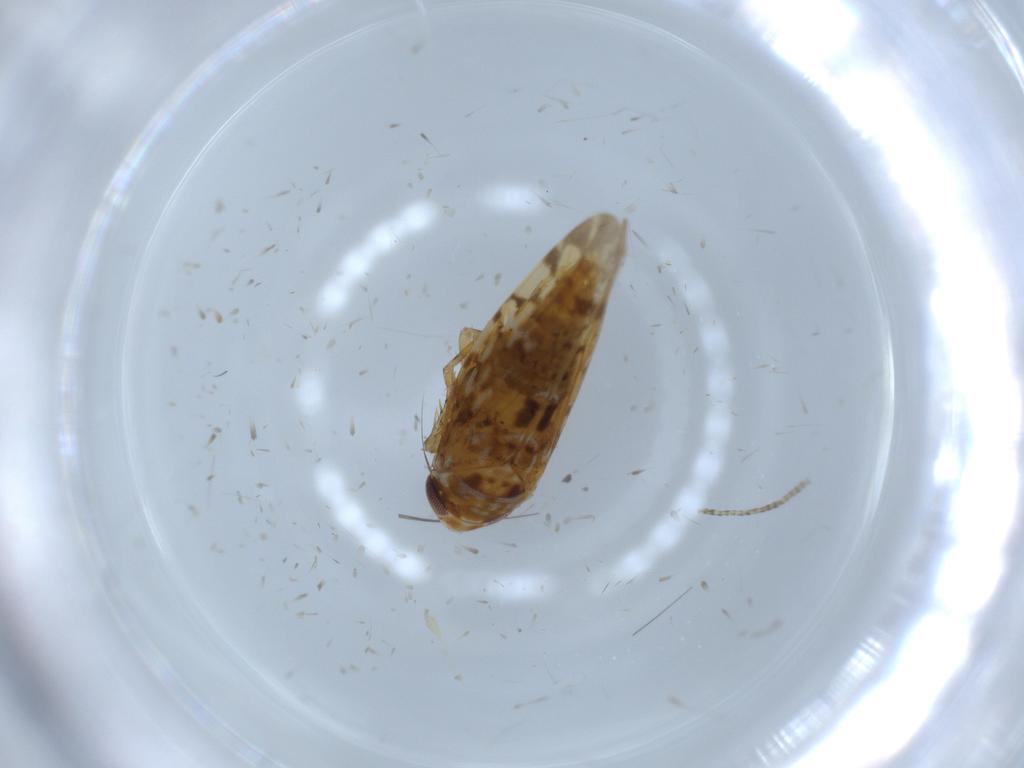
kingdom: Animalia
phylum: Arthropoda
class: Insecta
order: Hemiptera
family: Cicadellidae
